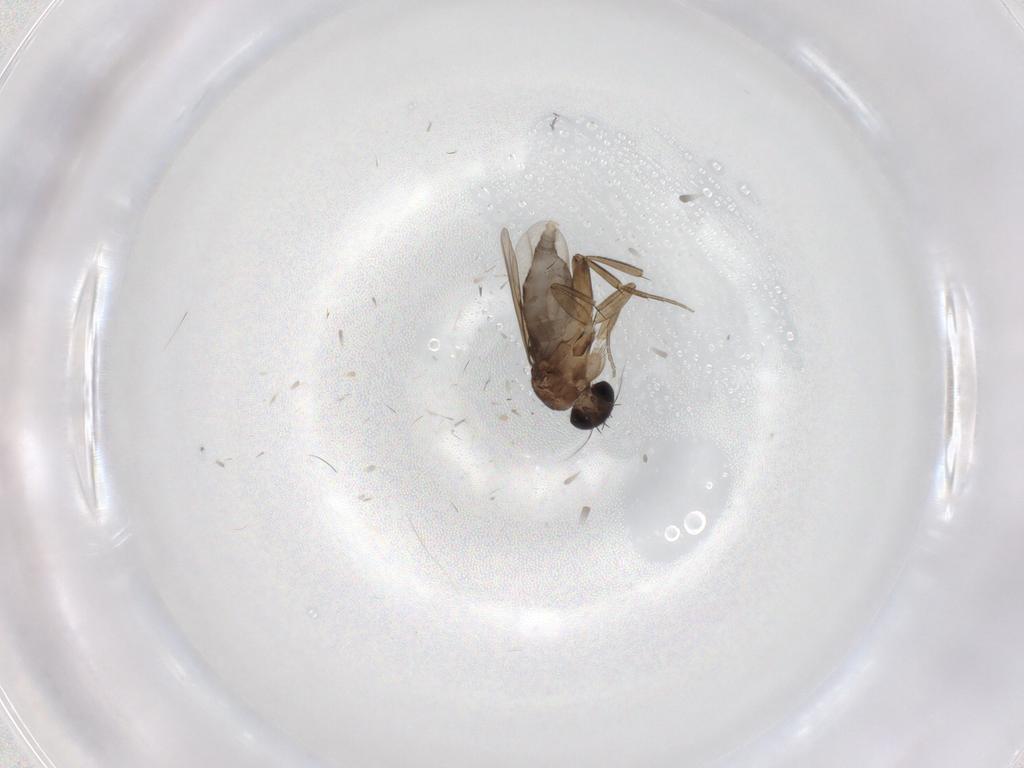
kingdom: Animalia
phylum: Arthropoda
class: Insecta
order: Diptera
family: Phoridae
